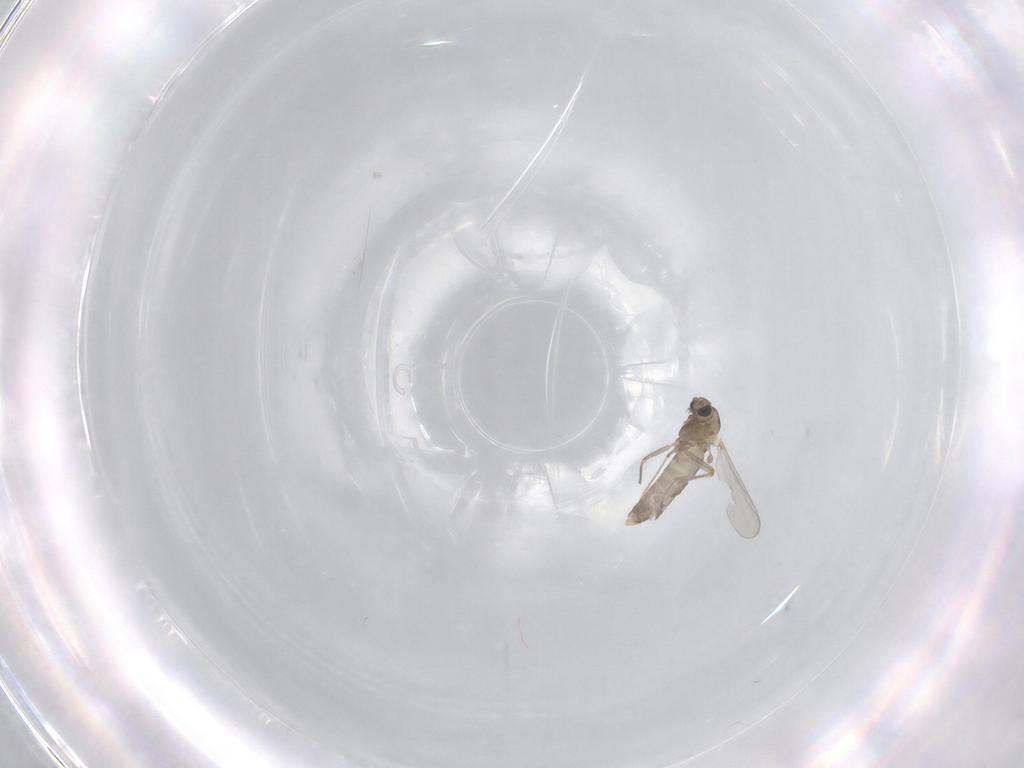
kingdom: Animalia
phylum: Arthropoda
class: Insecta
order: Diptera
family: Chironomidae
